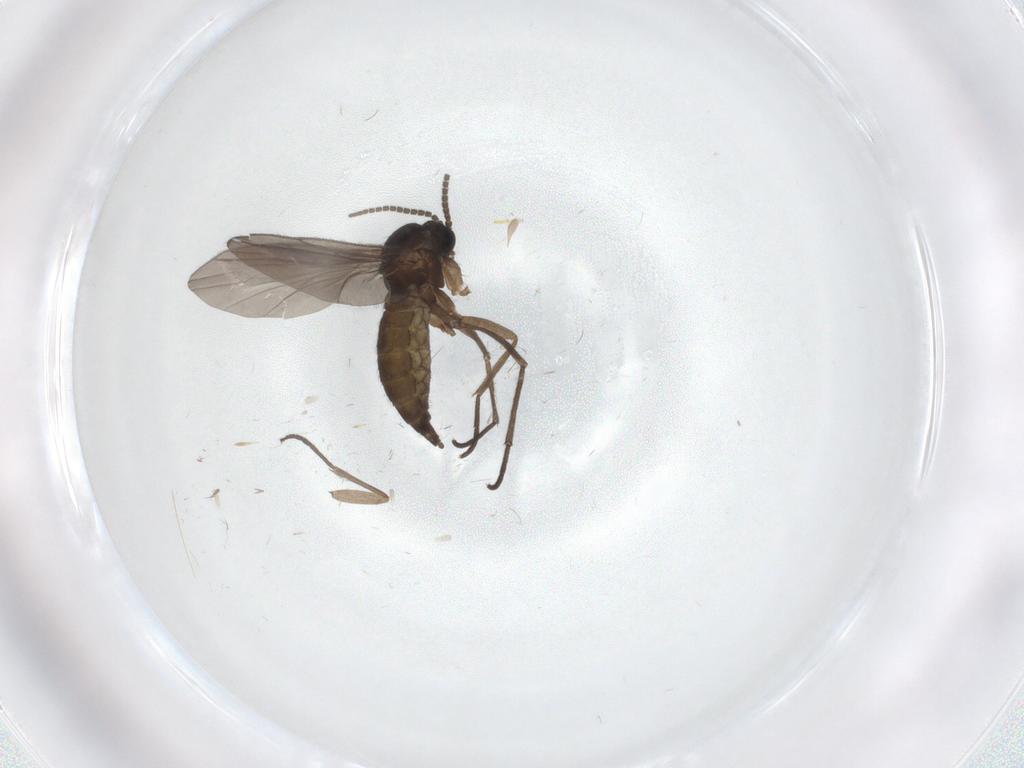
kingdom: Animalia
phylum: Arthropoda
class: Insecta
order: Diptera
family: Sciaridae
